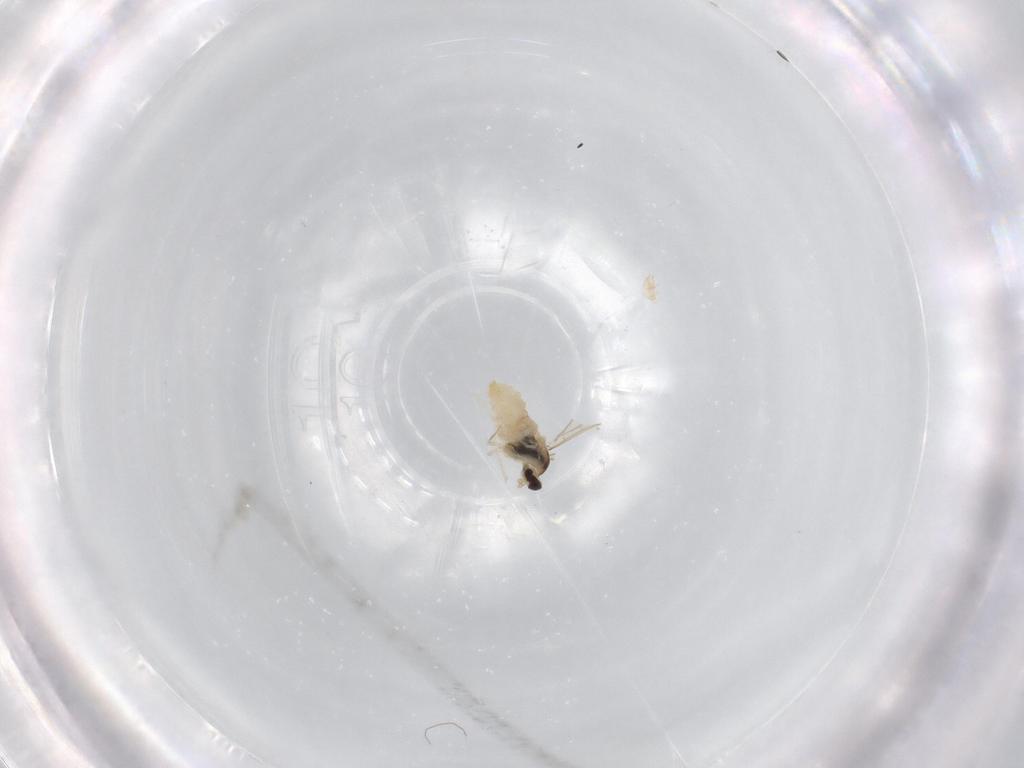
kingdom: Animalia
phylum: Arthropoda
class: Insecta
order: Diptera
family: Cecidomyiidae
